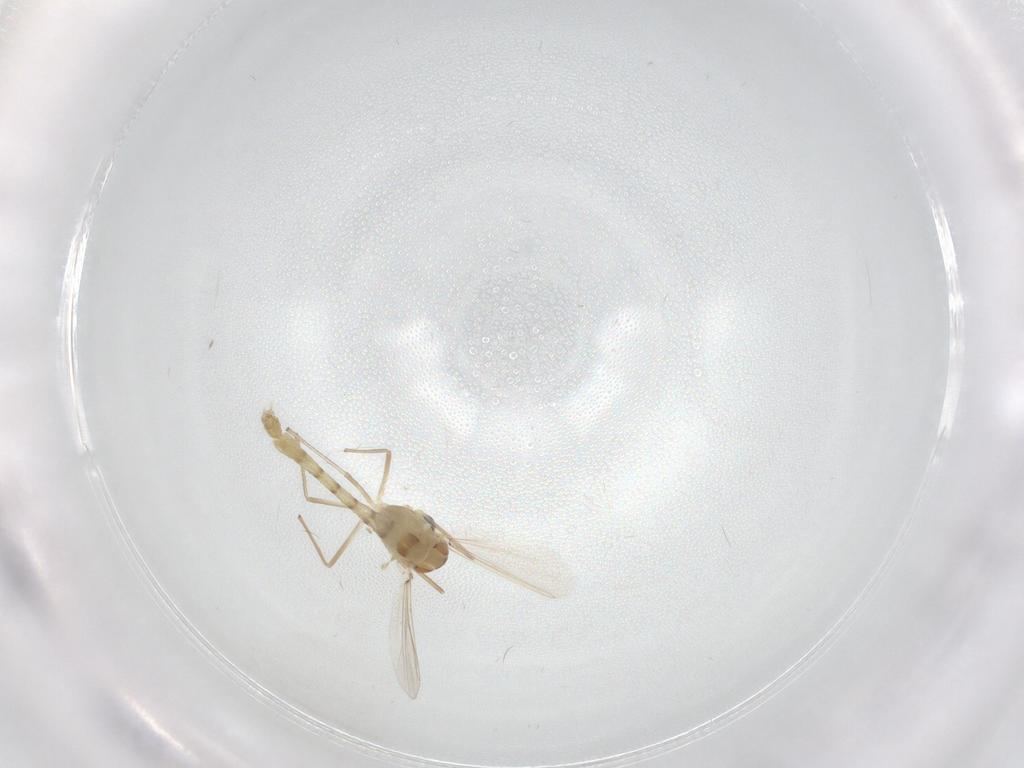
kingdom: Animalia
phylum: Arthropoda
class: Insecta
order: Diptera
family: Chironomidae
